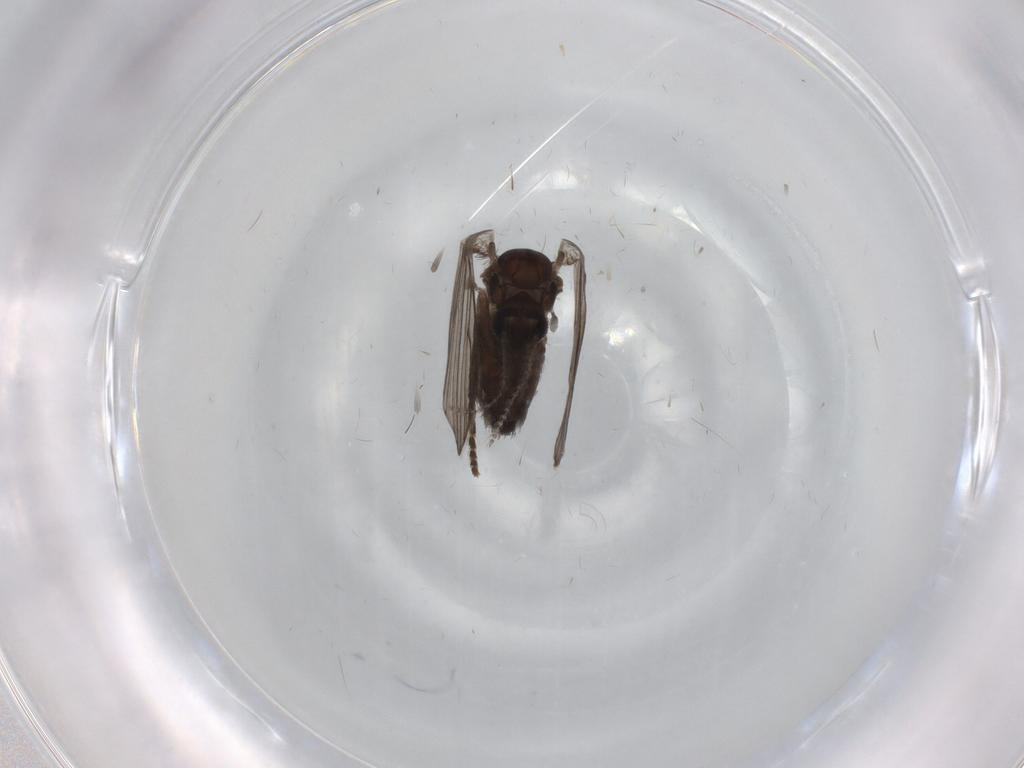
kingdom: Animalia
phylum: Arthropoda
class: Insecta
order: Diptera
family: Psychodidae
